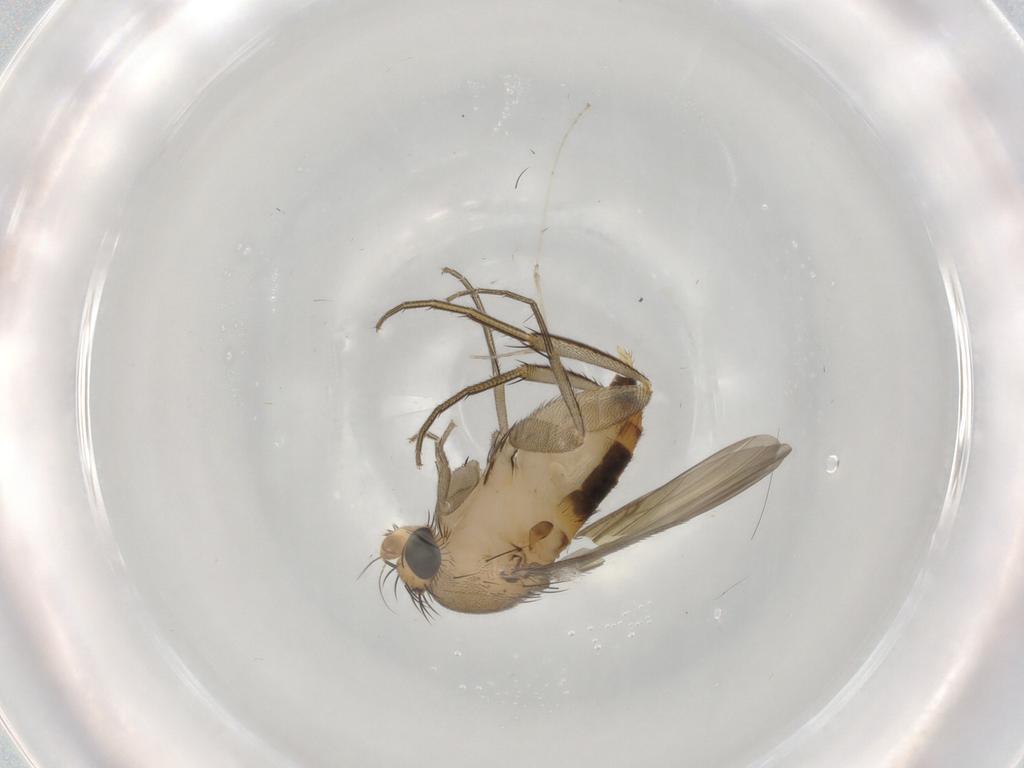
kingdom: Animalia
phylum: Arthropoda
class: Insecta
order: Diptera
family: Phoridae
